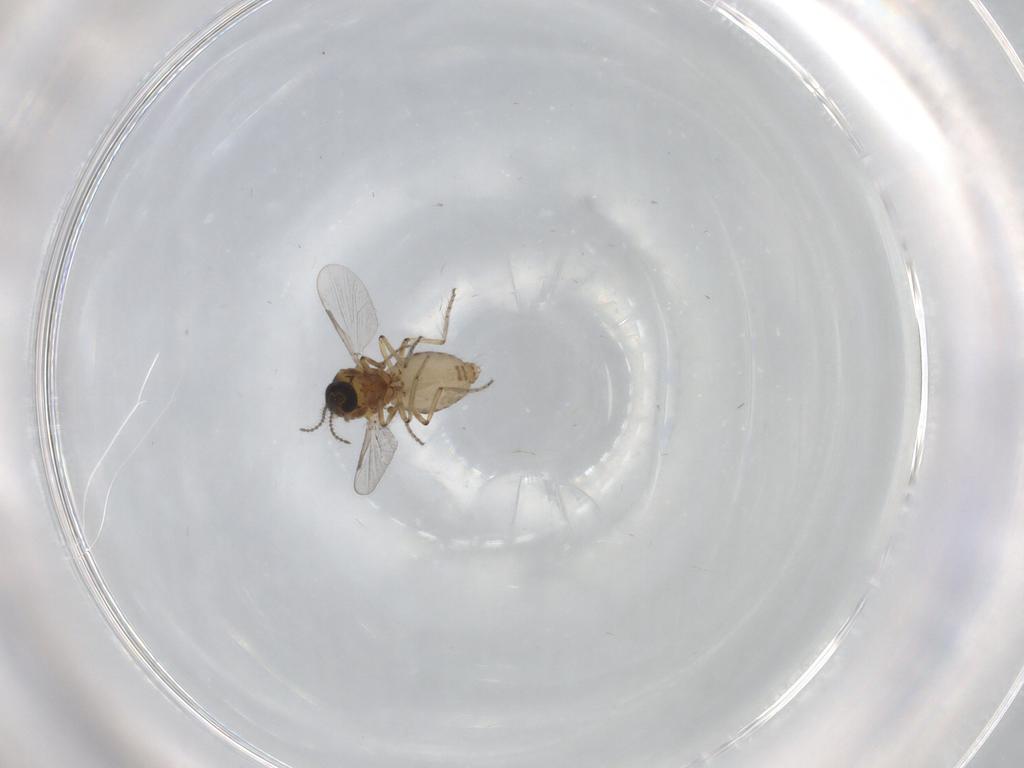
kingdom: Animalia
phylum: Arthropoda
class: Insecta
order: Diptera
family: Ceratopogonidae
